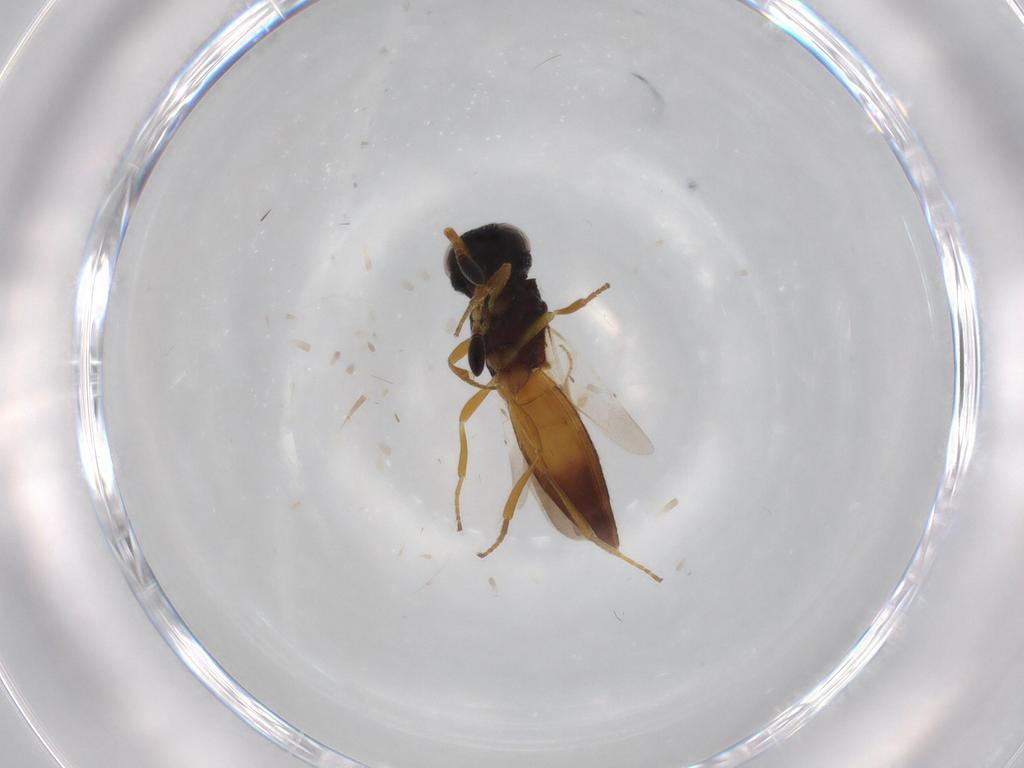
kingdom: Animalia
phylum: Arthropoda
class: Insecta
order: Hymenoptera
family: Scelionidae
